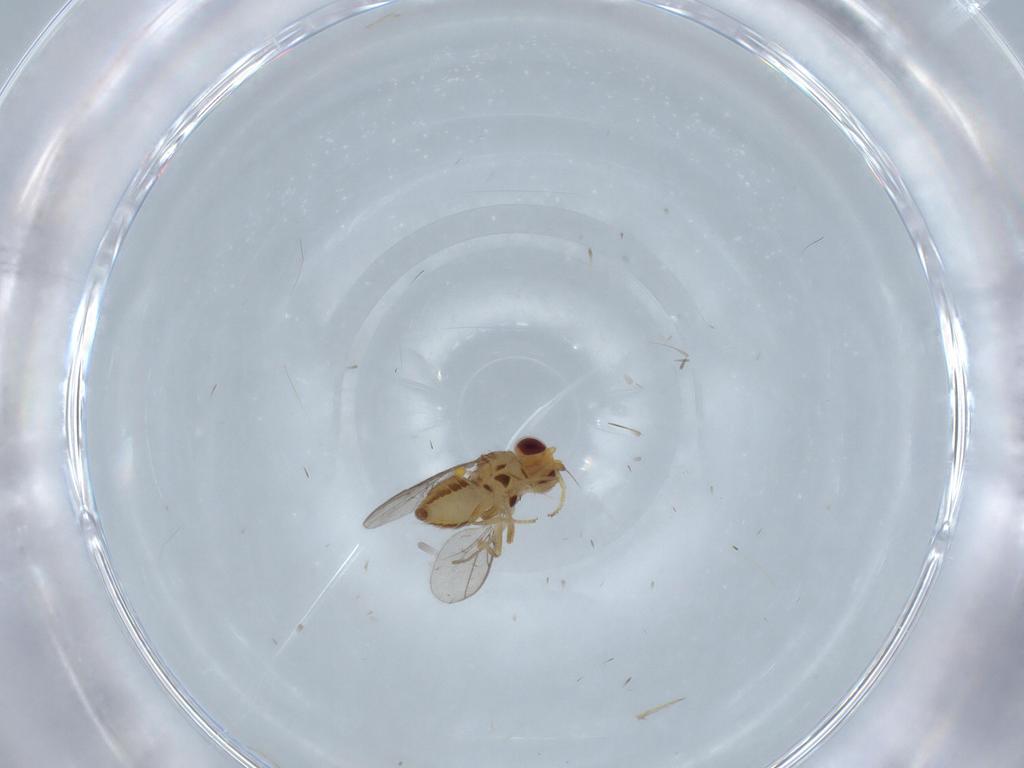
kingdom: Animalia
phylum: Arthropoda
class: Insecta
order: Diptera
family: Chloropidae
